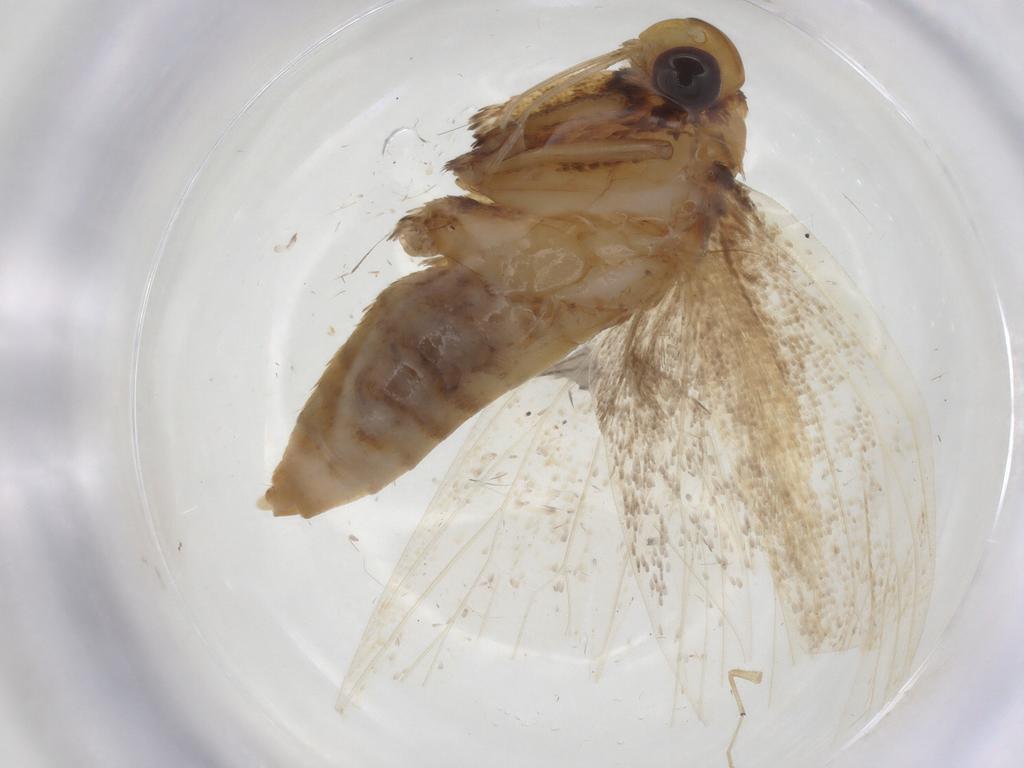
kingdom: Animalia
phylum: Arthropoda
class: Insecta
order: Lepidoptera
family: Lecithoceridae
